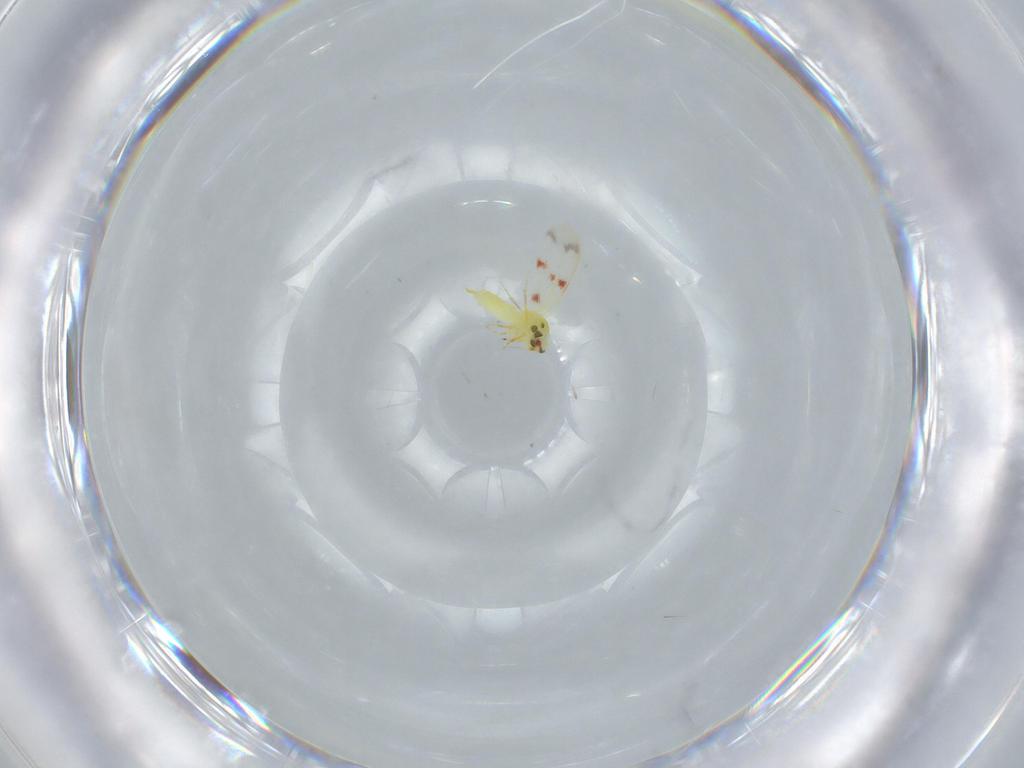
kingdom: Animalia
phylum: Arthropoda
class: Insecta
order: Hemiptera
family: Aleyrodidae
